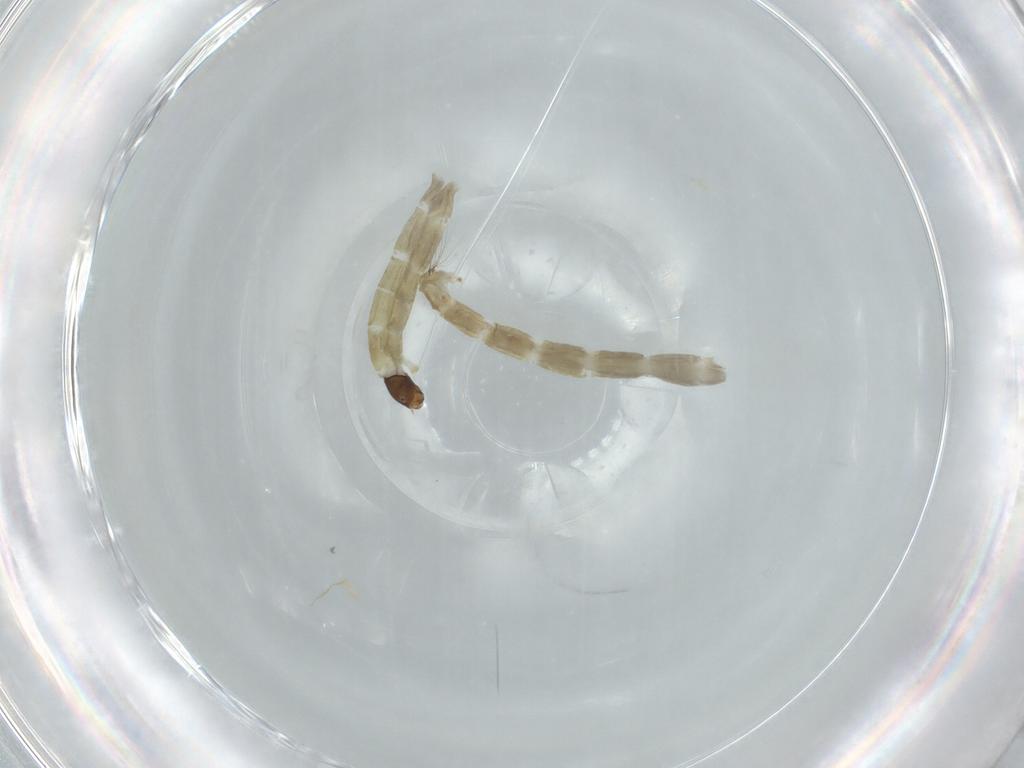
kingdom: Animalia
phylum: Arthropoda
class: Insecta
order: Diptera
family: Chironomidae
